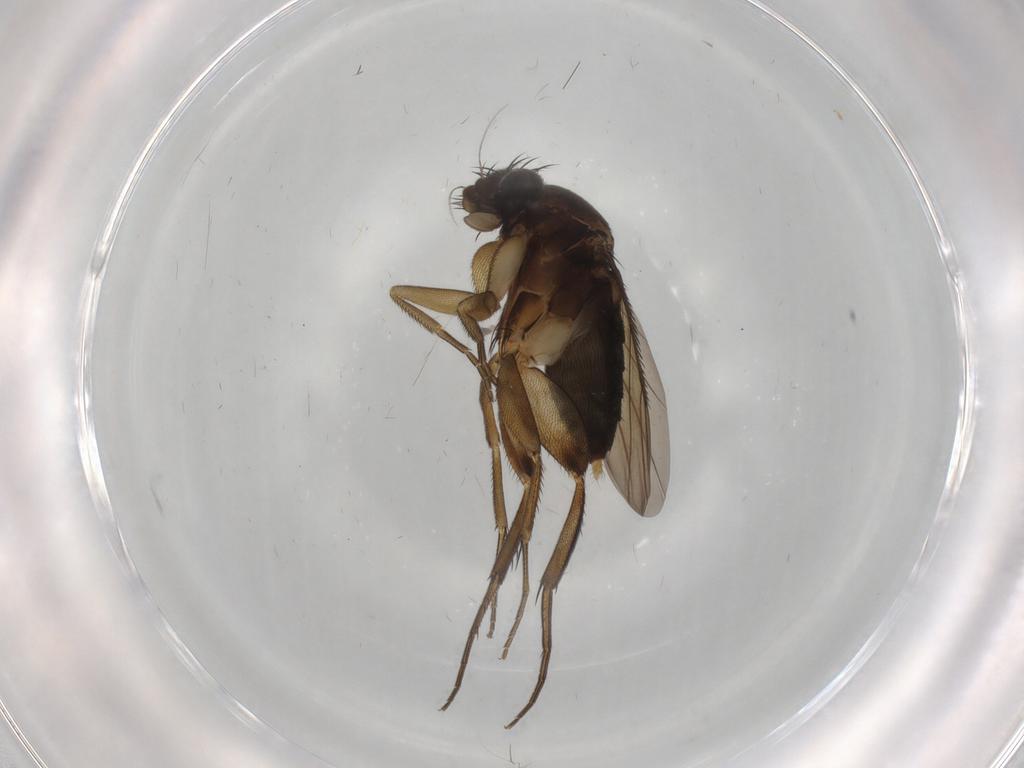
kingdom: Animalia
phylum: Arthropoda
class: Insecta
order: Diptera
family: Phoridae
